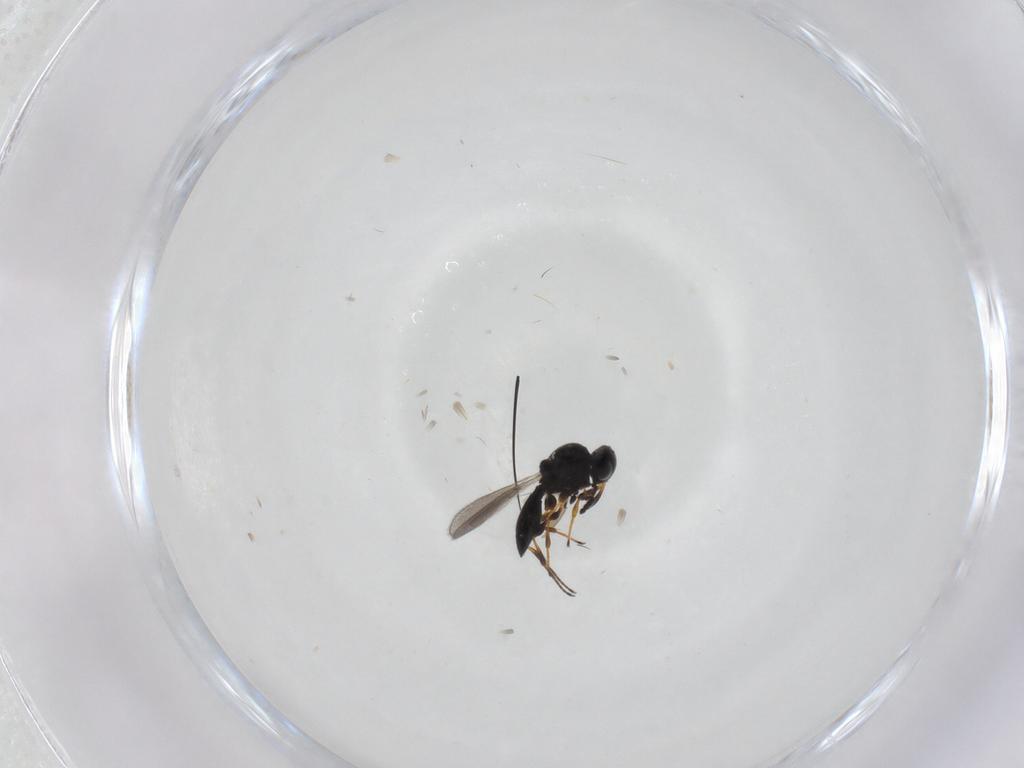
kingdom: Animalia
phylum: Arthropoda
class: Insecta
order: Hymenoptera
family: Platygastridae
